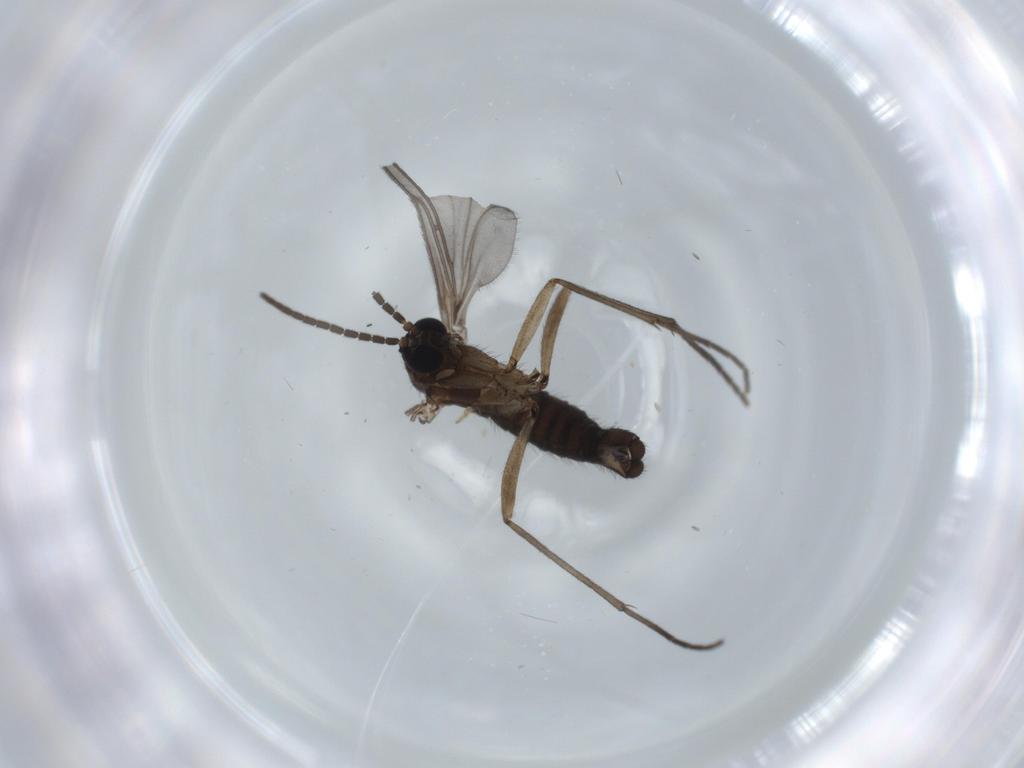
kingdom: Animalia
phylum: Arthropoda
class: Insecta
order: Diptera
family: Sciaridae
